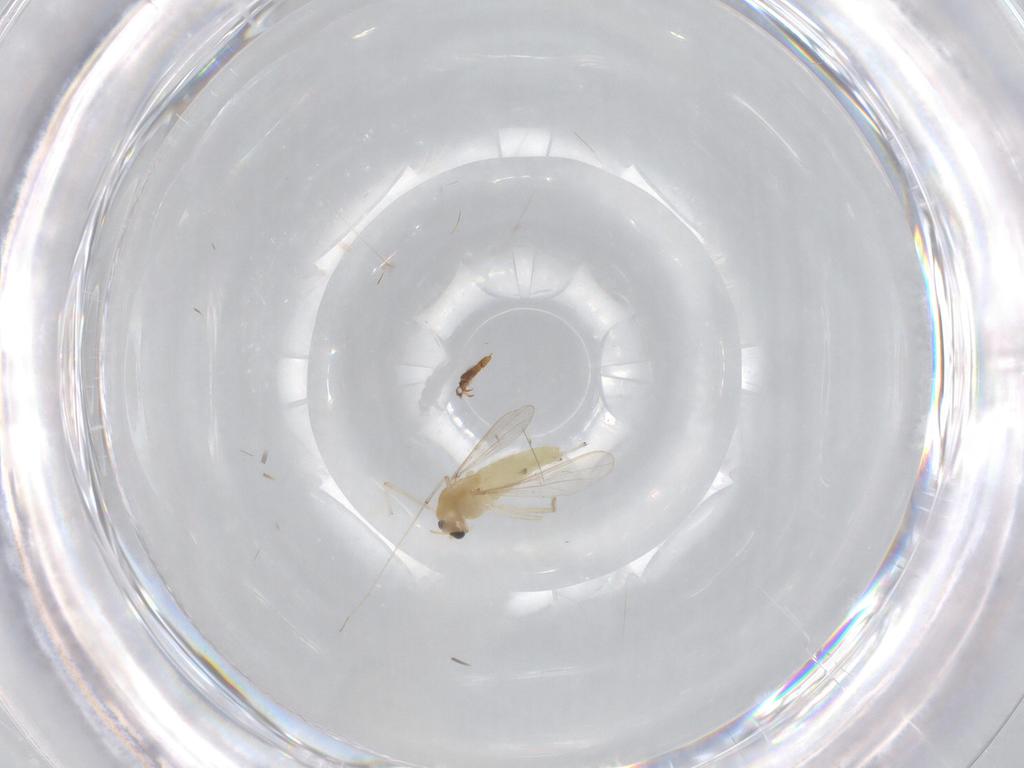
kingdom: Animalia
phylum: Arthropoda
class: Insecta
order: Diptera
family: Chironomidae
